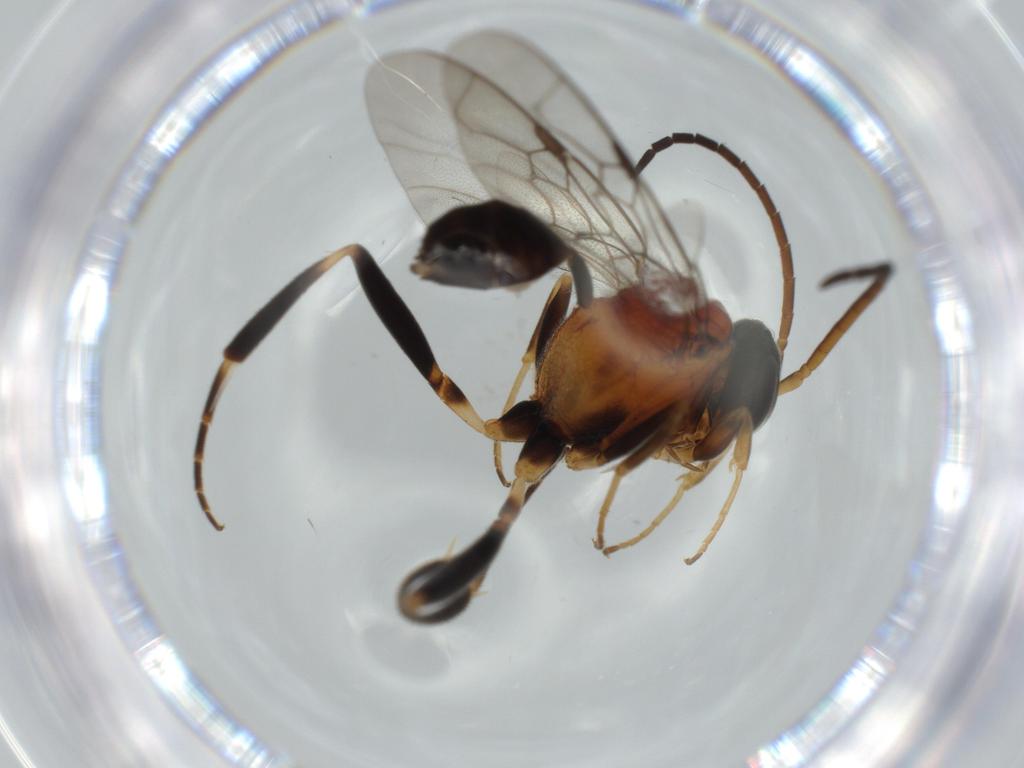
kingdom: Animalia
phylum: Arthropoda
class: Insecta
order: Hymenoptera
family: Evaniidae
